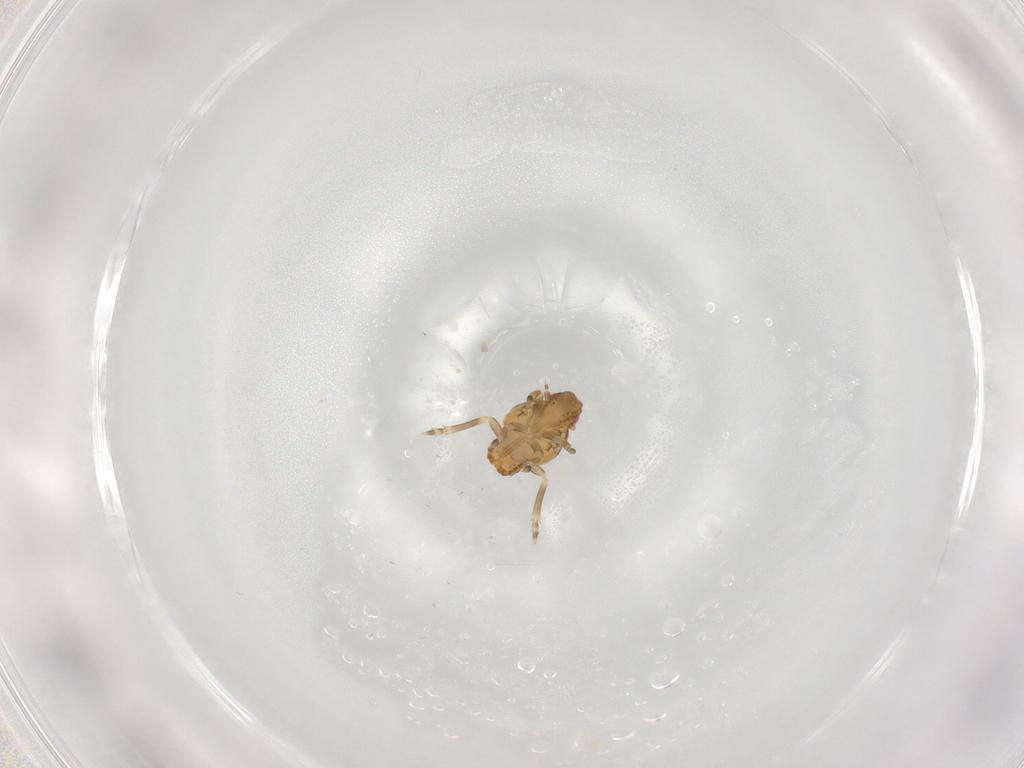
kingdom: Animalia
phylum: Arthropoda
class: Insecta
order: Hemiptera
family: Flatidae
